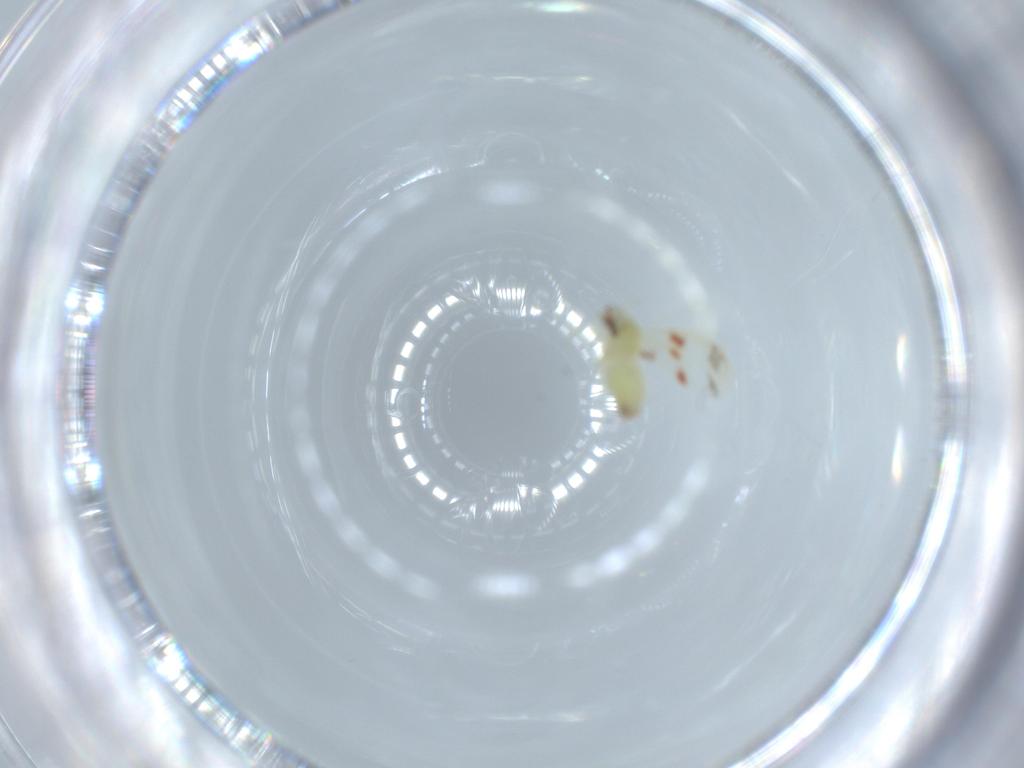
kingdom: Animalia
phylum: Arthropoda
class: Insecta
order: Hemiptera
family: Aleyrodidae
